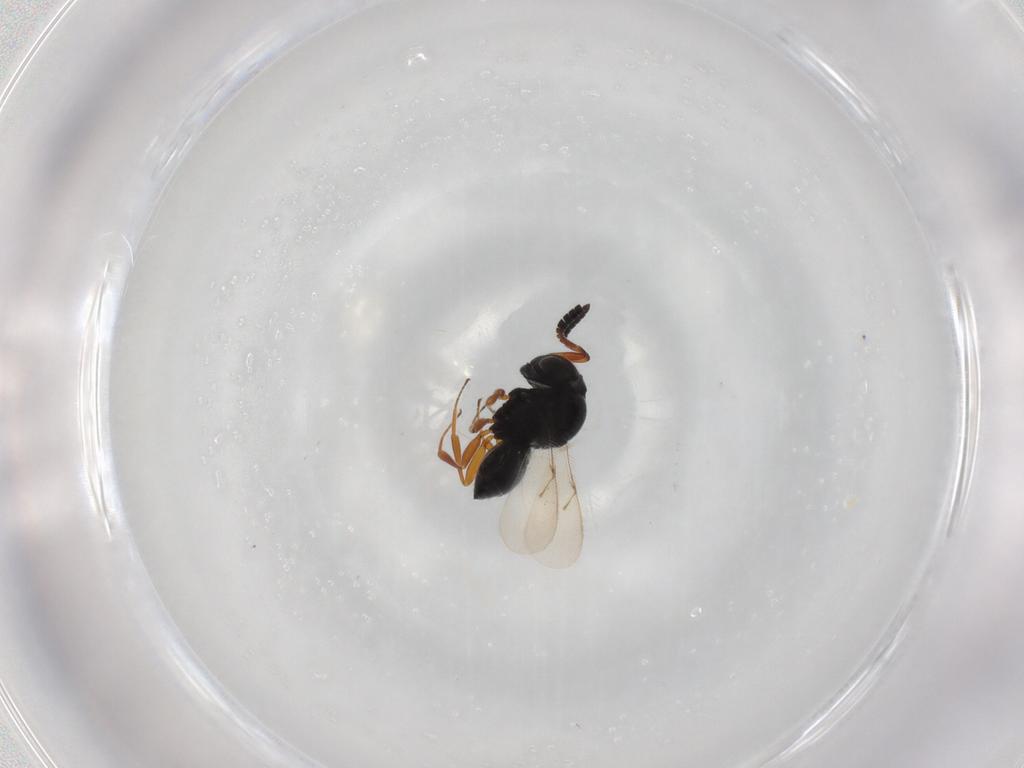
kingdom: Animalia
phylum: Arthropoda
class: Insecta
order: Hymenoptera
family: Scelionidae
